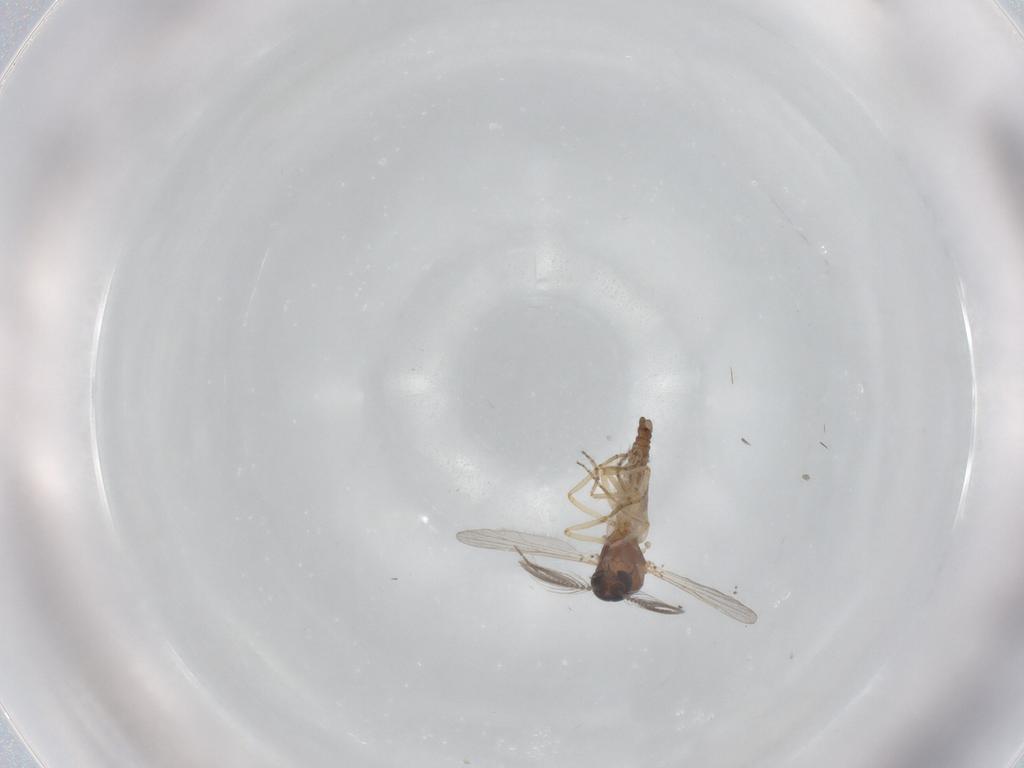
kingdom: Animalia
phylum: Arthropoda
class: Insecta
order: Diptera
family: Ceratopogonidae
